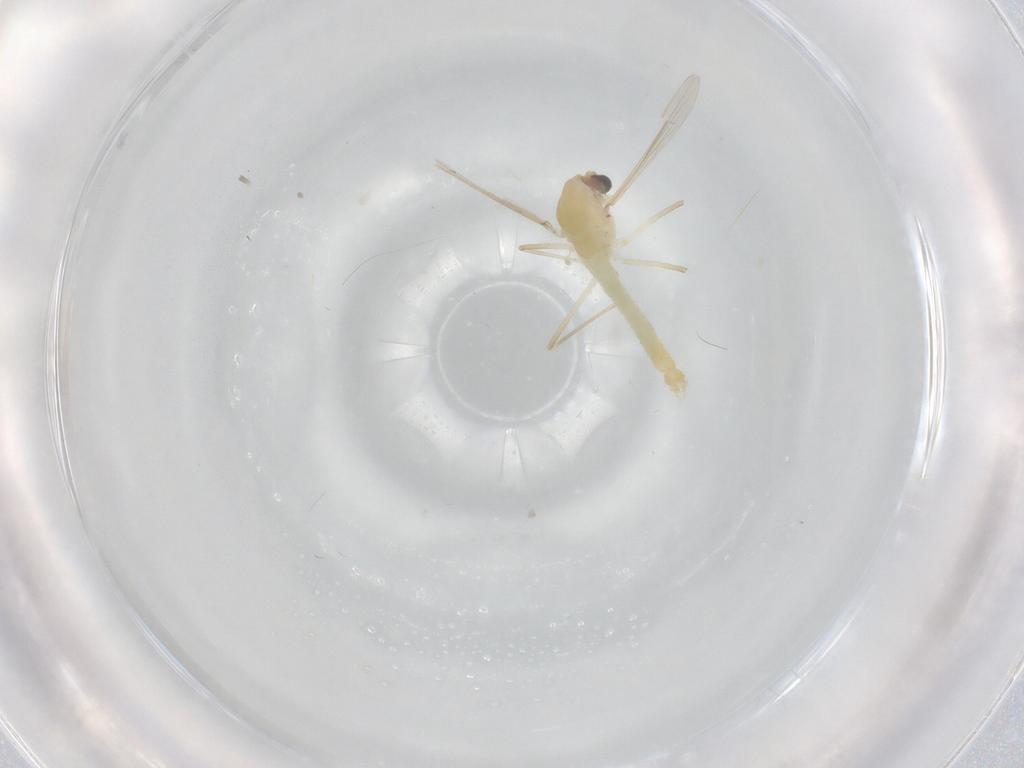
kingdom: Animalia
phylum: Arthropoda
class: Insecta
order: Diptera
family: Chironomidae
